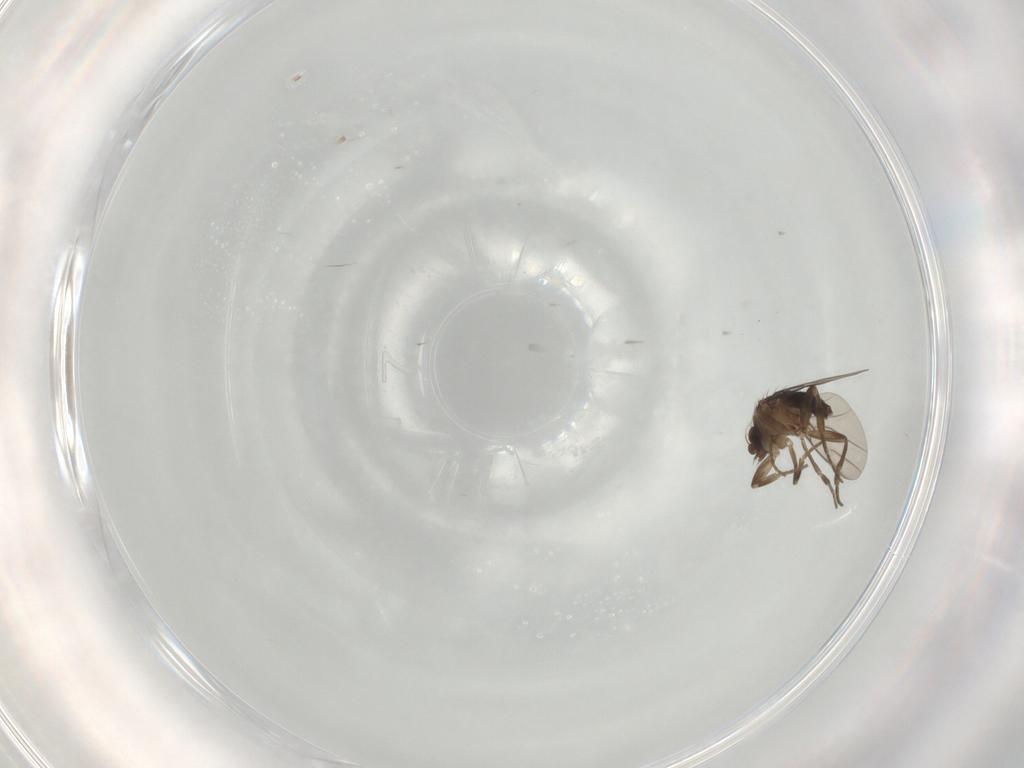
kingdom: Animalia
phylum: Arthropoda
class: Insecta
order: Diptera
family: Phoridae
